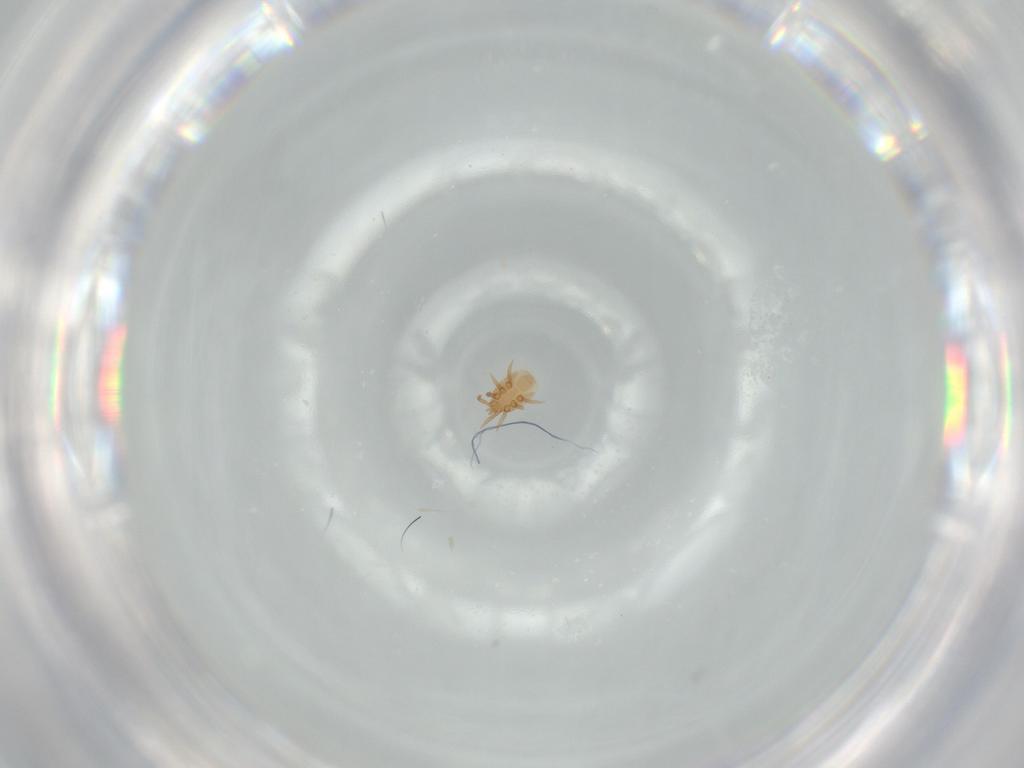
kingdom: Animalia
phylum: Arthropoda
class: Arachnida
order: Mesostigmata
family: Dinychidae
